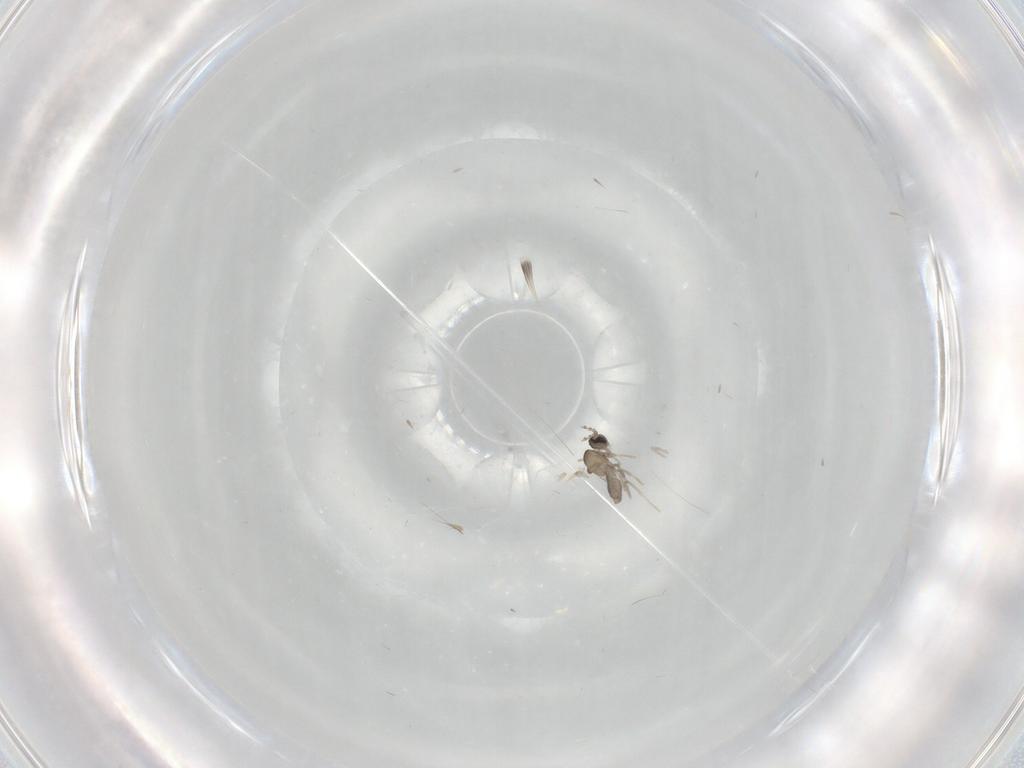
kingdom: Animalia
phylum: Arthropoda
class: Insecta
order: Diptera
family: Cecidomyiidae
